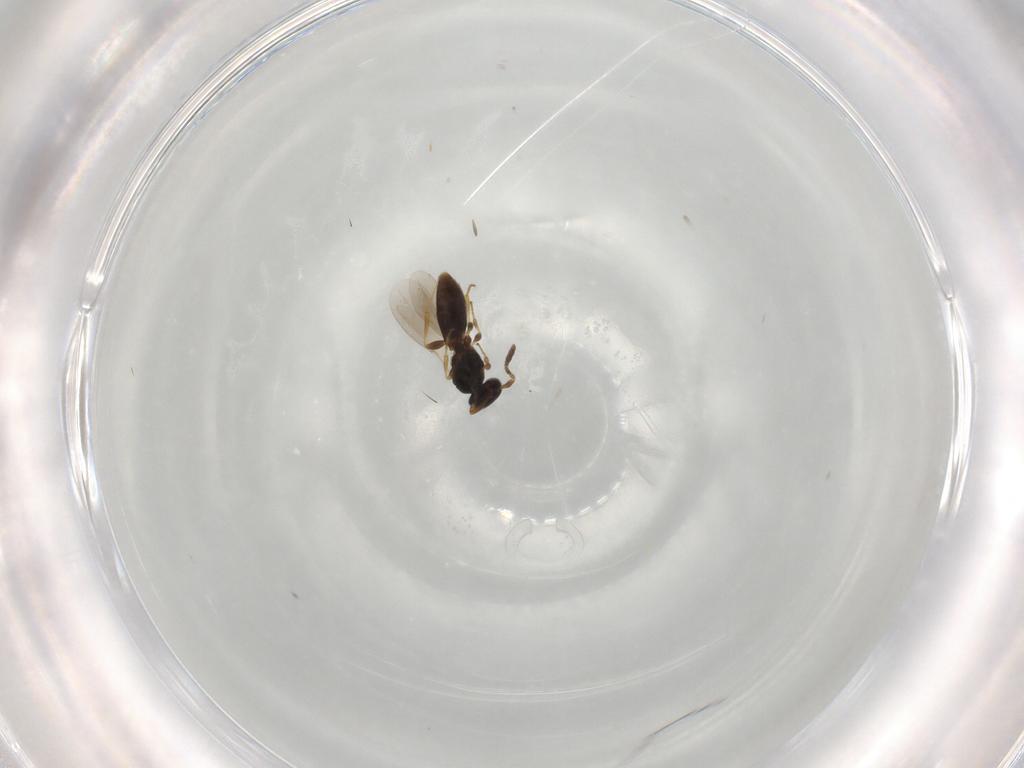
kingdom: Animalia
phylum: Arthropoda
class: Insecta
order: Hymenoptera
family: Platygastridae
